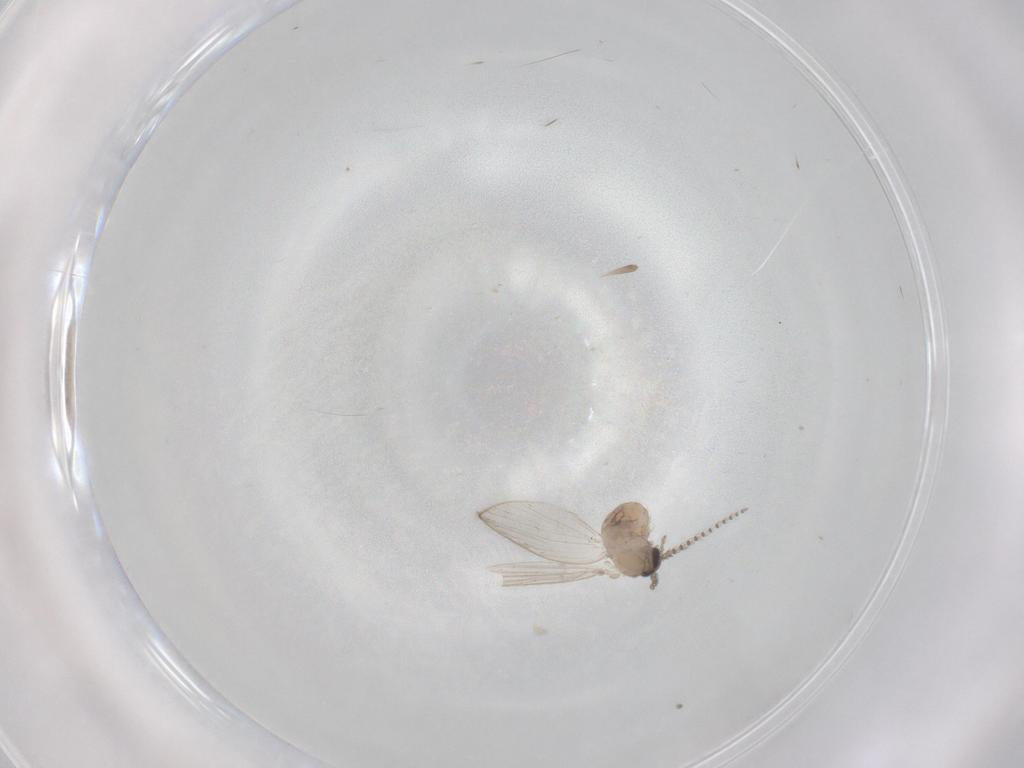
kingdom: Animalia
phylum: Arthropoda
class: Insecta
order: Diptera
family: Psychodidae
